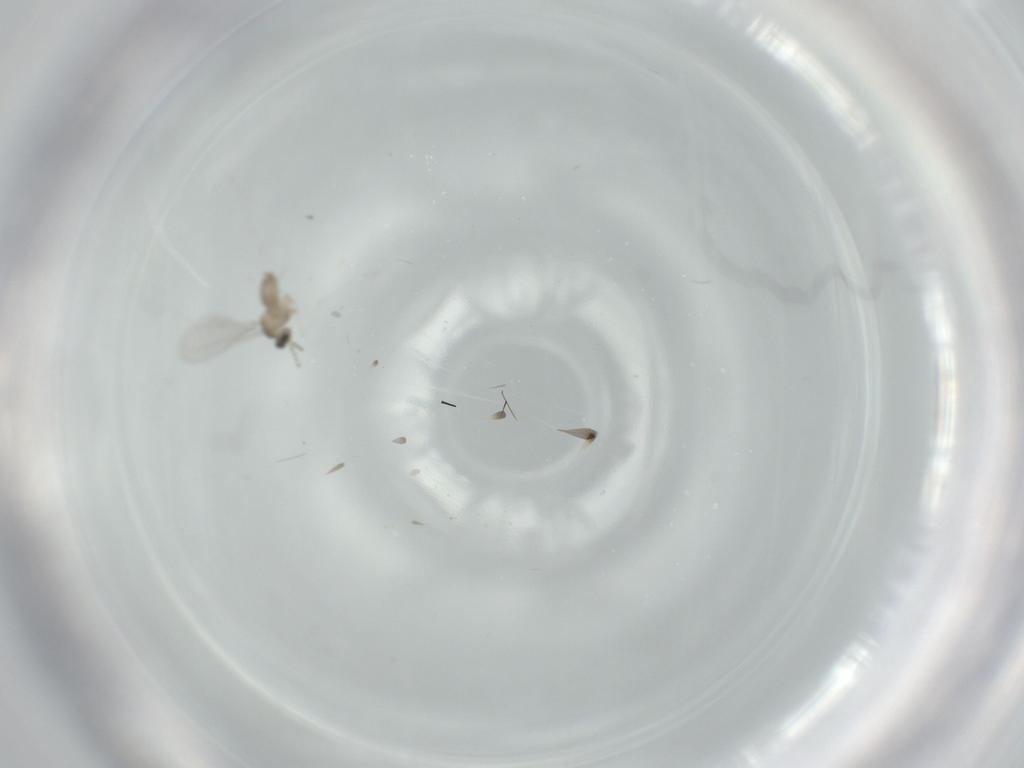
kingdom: Animalia
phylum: Arthropoda
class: Insecta
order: Diptera
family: Cecidomyiidae
